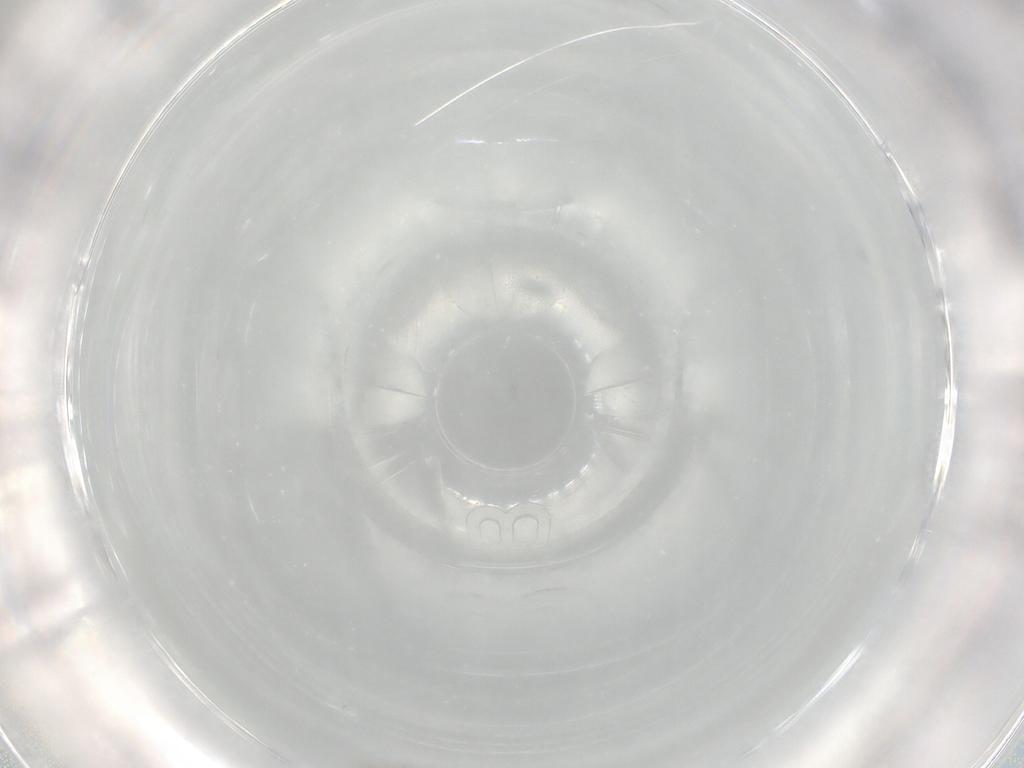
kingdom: Animalia
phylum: Arthropoda
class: Insecta
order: Diptera
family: Cecidomyiidae
